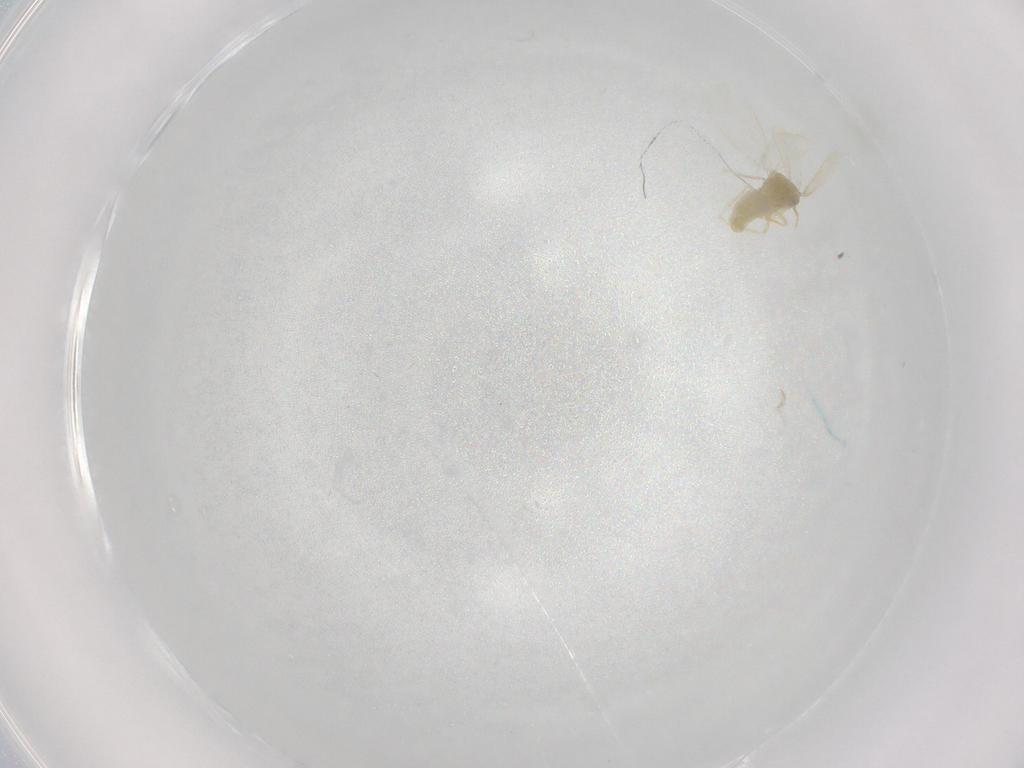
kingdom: Animalia
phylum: Arthropoda
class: Insecta
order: Hemiptera
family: Membracidae
